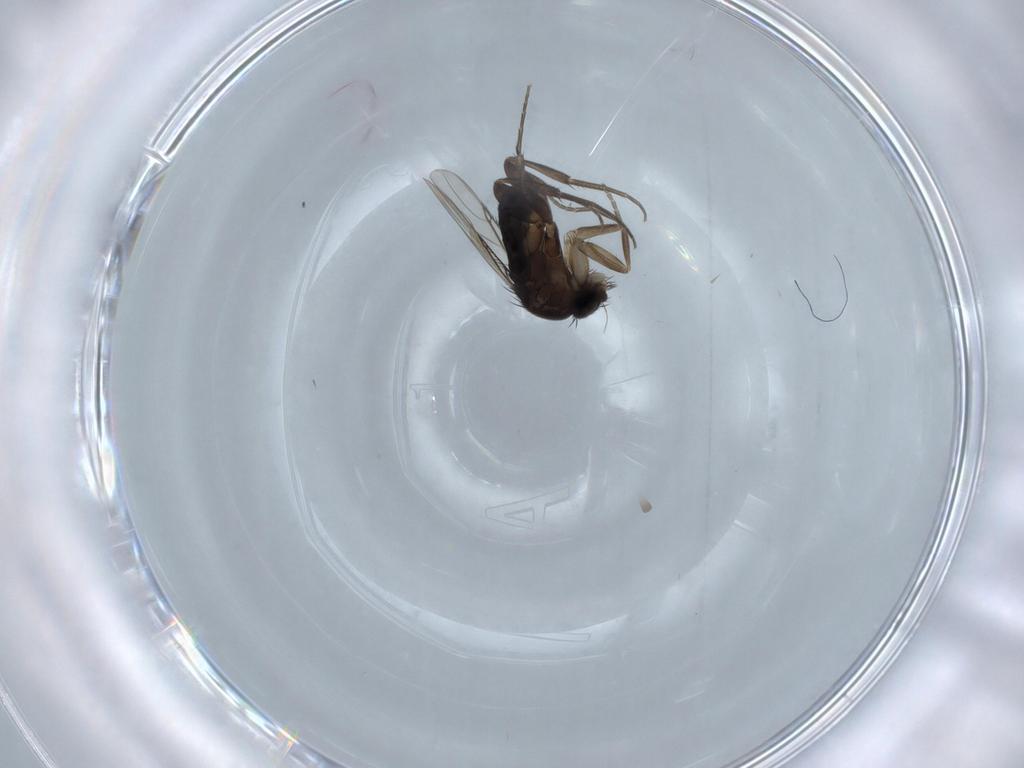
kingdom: Animalia
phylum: Arthropoda
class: Insecta
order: Diptera
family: Phoridae
